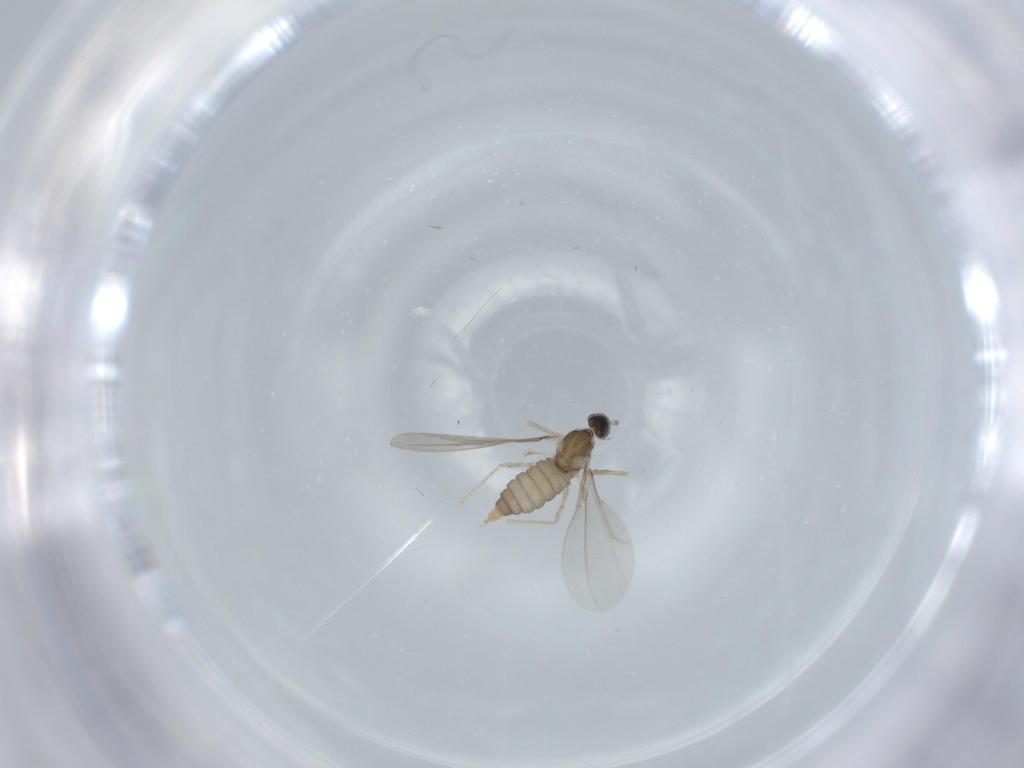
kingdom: Animalia
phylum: Arthropoda
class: Insecta
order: Diptera
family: Cecidomyiidae
